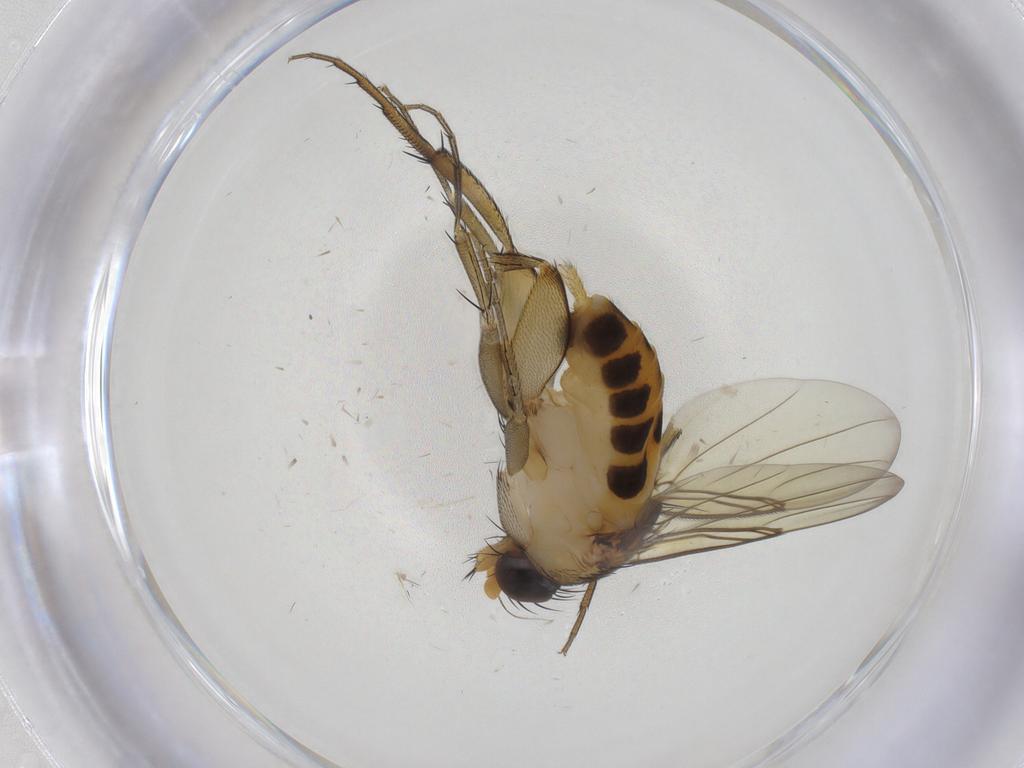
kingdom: Animalia
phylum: Arthropoda
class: Insecta
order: Diptera
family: Phoridae
